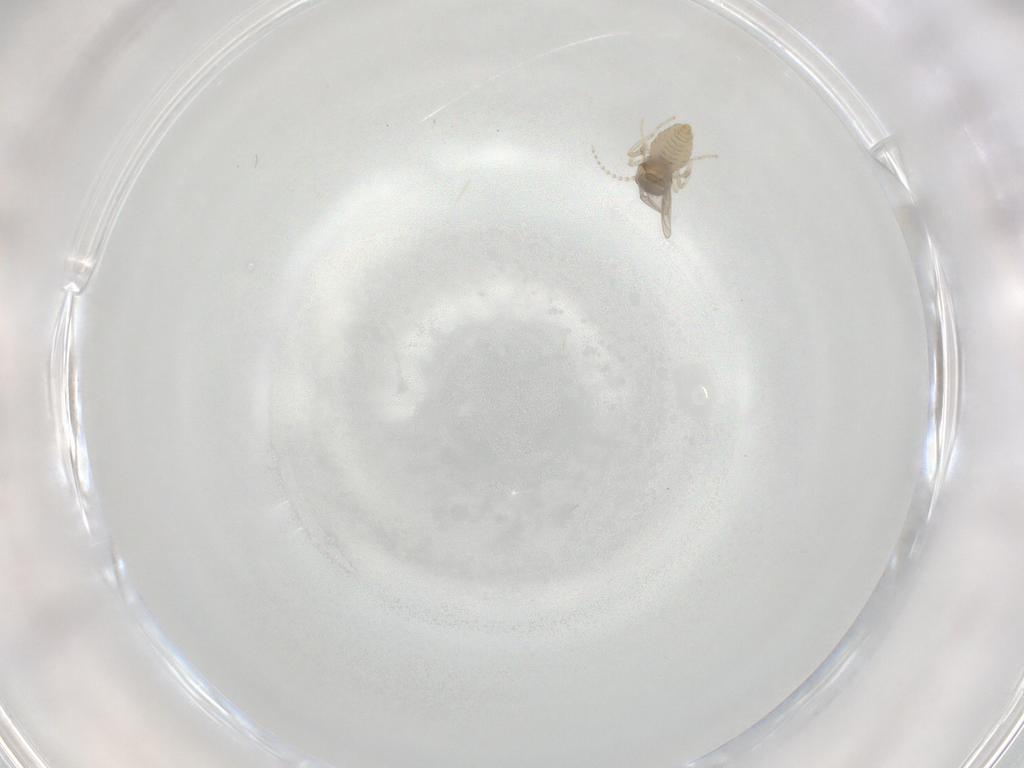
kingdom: Animalia
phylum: Arthropoda
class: Insecta
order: Diptera
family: Cecidomyiidae
